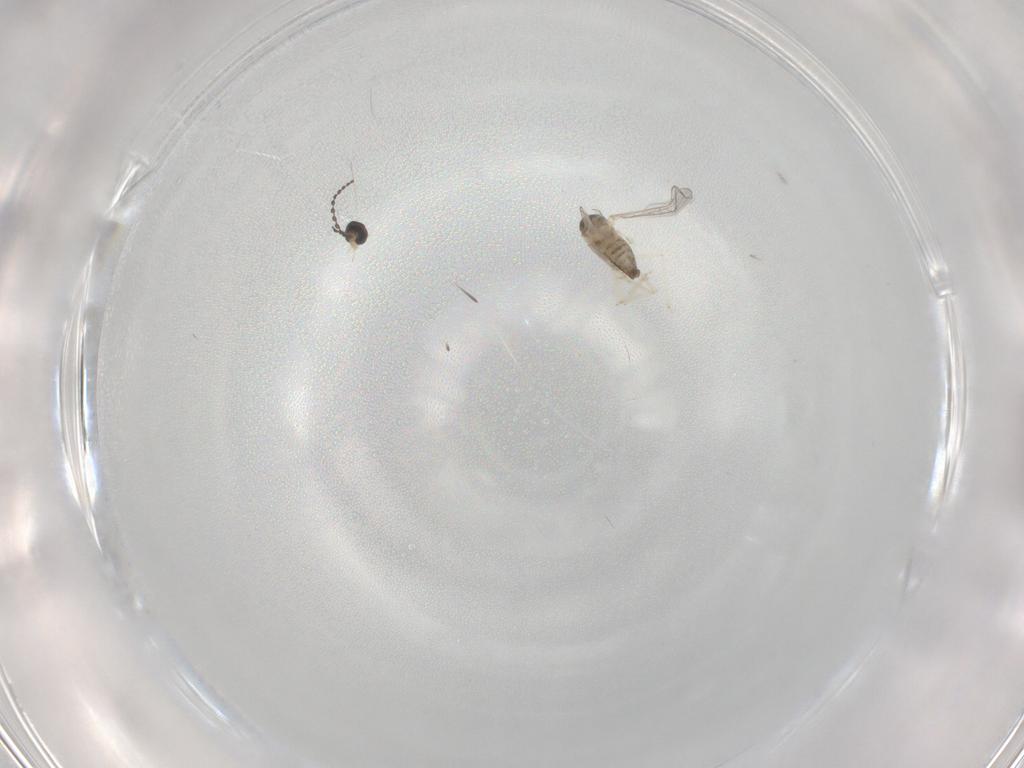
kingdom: Animalia
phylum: Arthropoda
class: Insecta
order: Diptera
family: Cecidomyiidae
